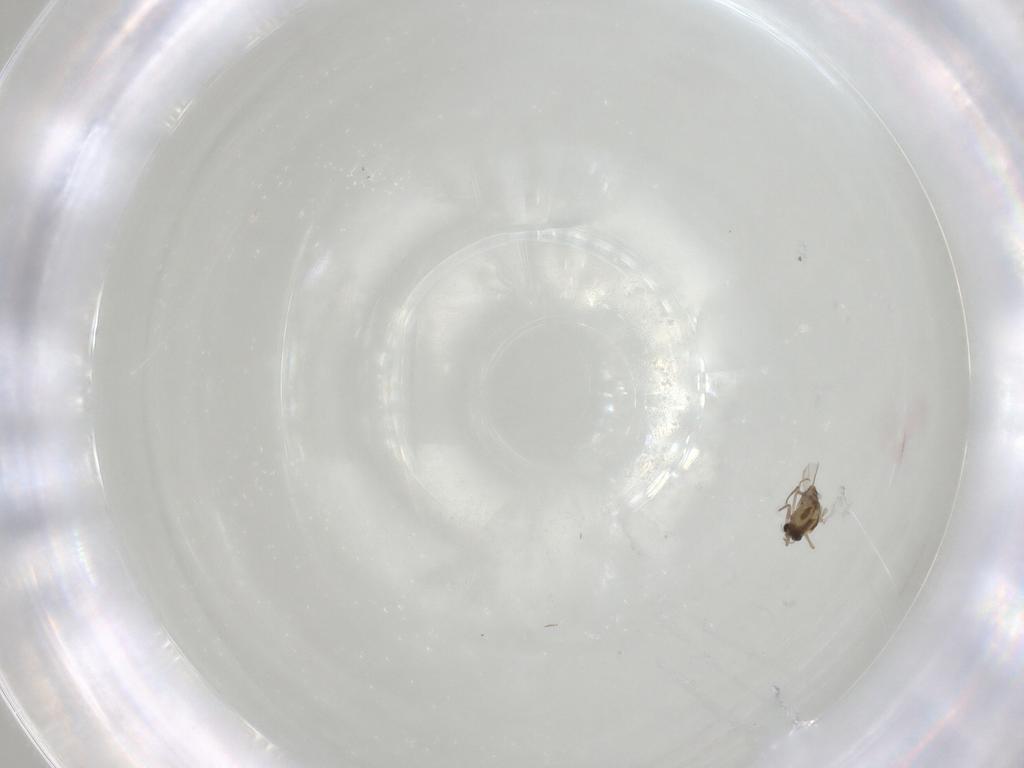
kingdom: Animalia
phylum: Arthropoda
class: Insecta
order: Diptera
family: Chironomidae
